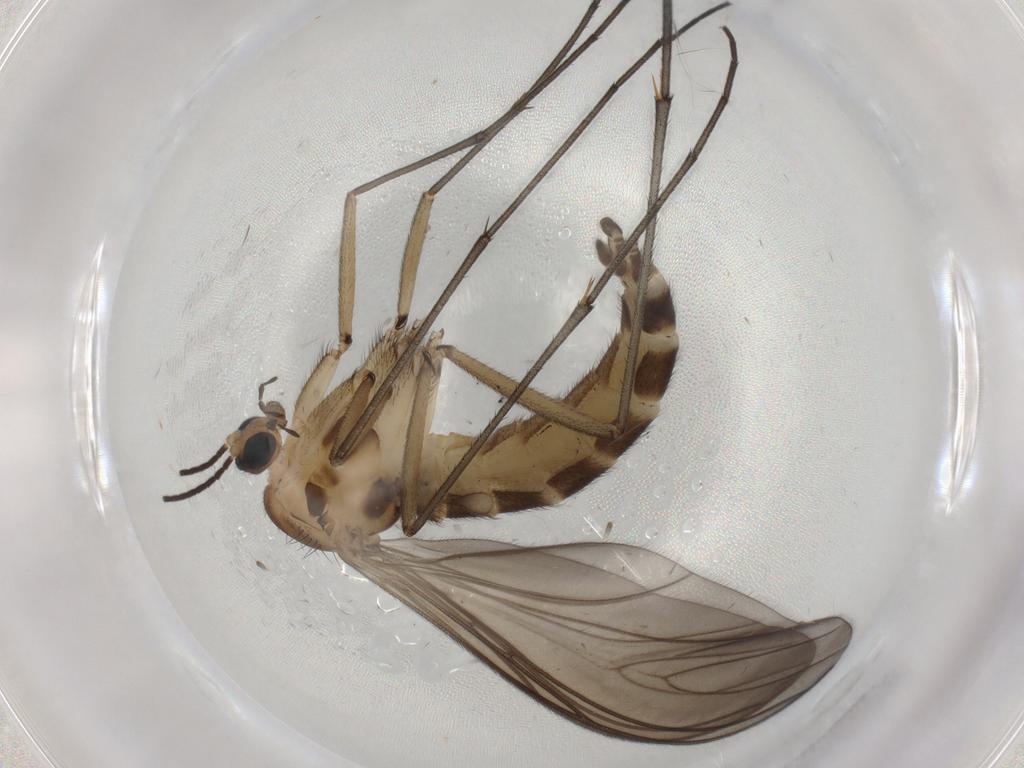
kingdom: Animalia
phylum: Arthropoda
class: Insecta
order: Diptera
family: Sciaridae
